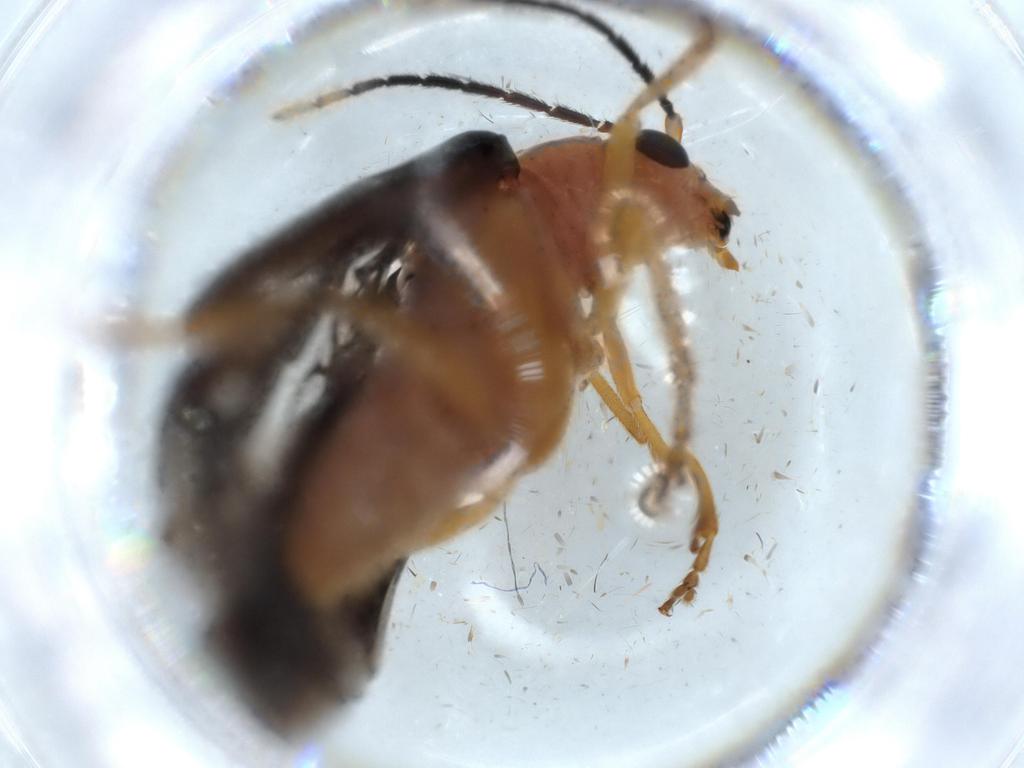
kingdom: Animalia
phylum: Arthropoda
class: Insecta
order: Coleoptera
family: Chrysomelidae
